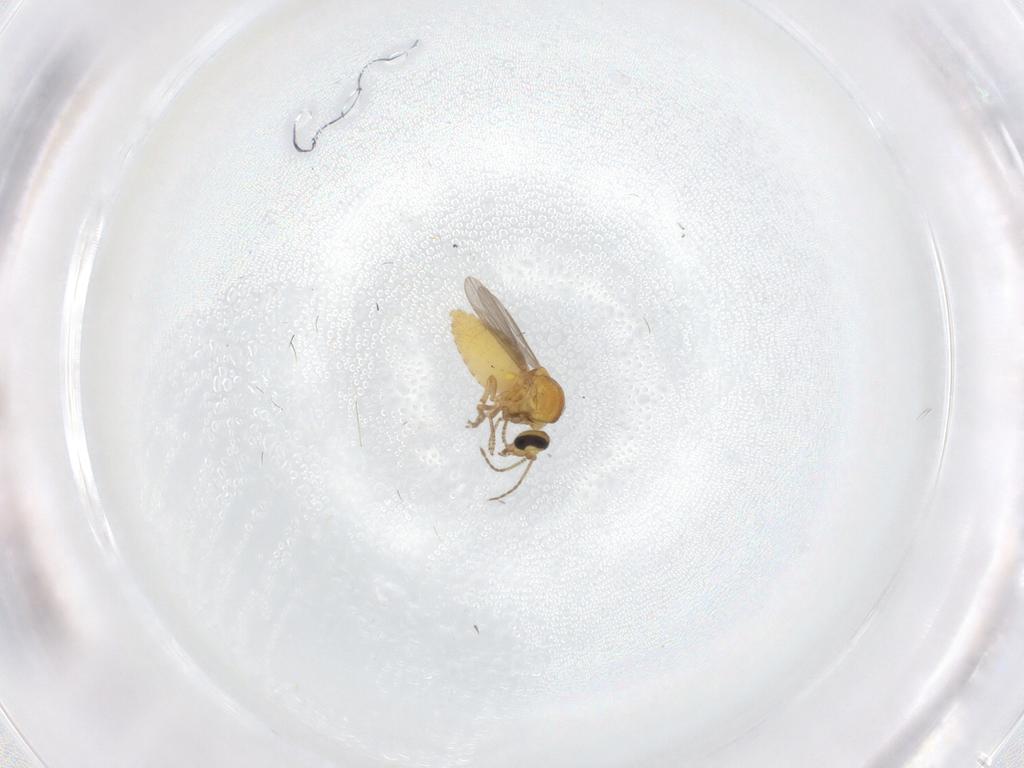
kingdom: Animalia
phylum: Arthropoda
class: Insecta
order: Diptera
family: Ceratopogonidae
